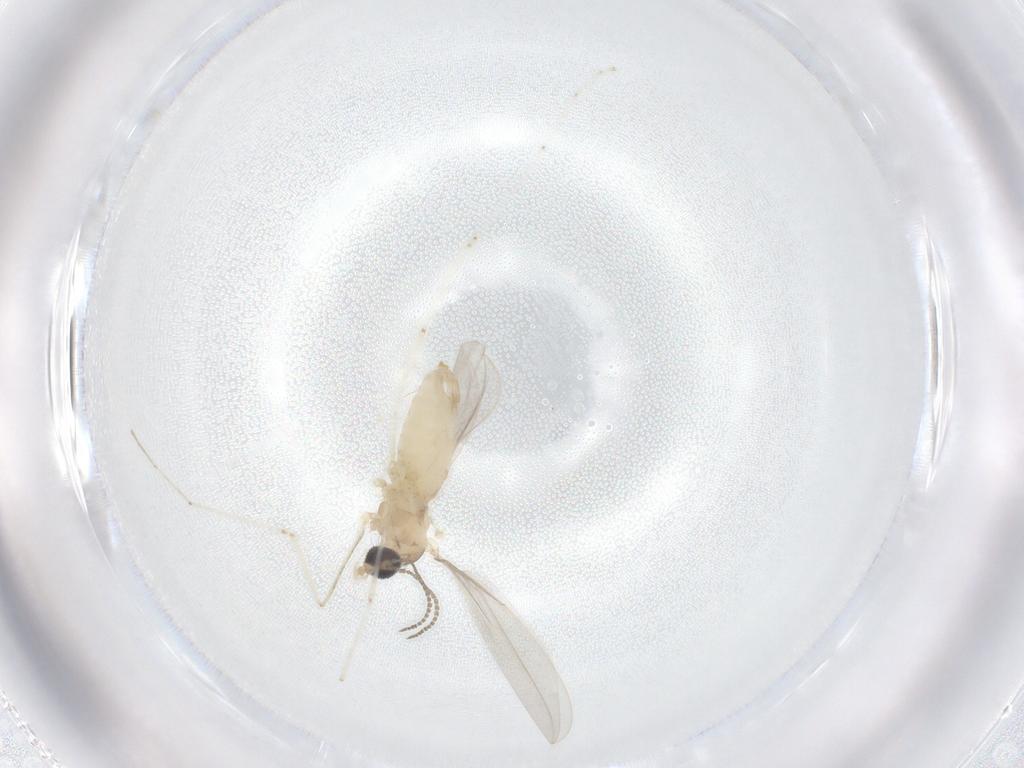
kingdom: Animalia
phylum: Arthropoda
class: Insecta
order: Diptera
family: Cecidomyiidae
